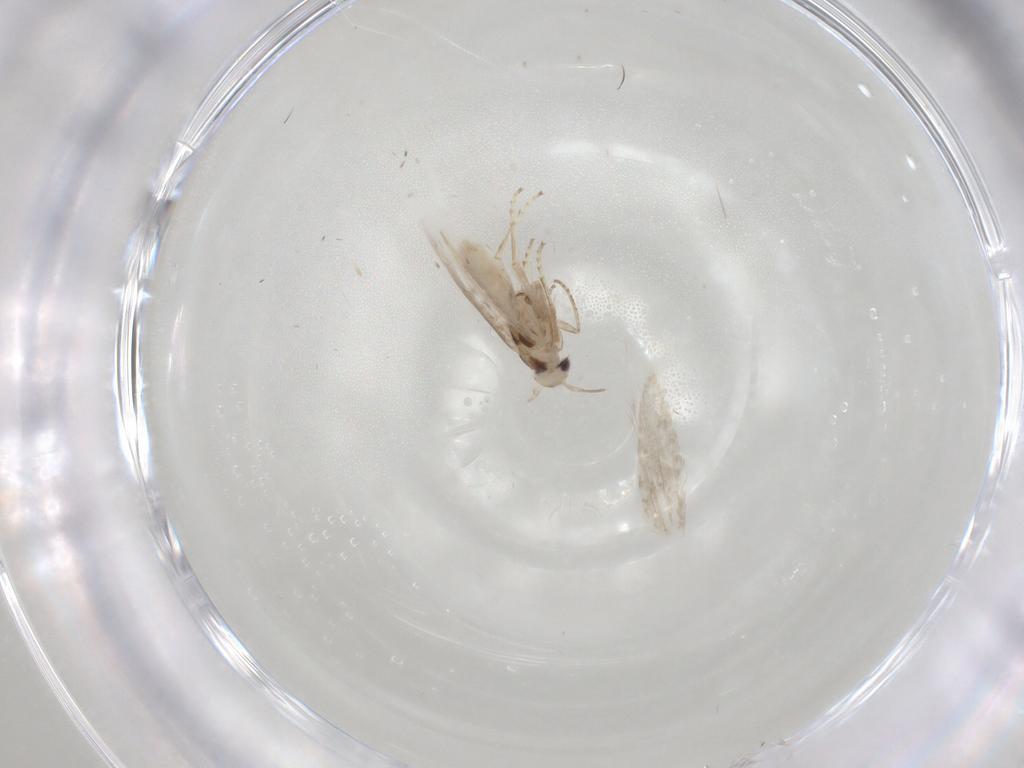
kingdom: Animalia
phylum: Arthropoda
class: Insecta
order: Lepidoptera
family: Depressariidae
